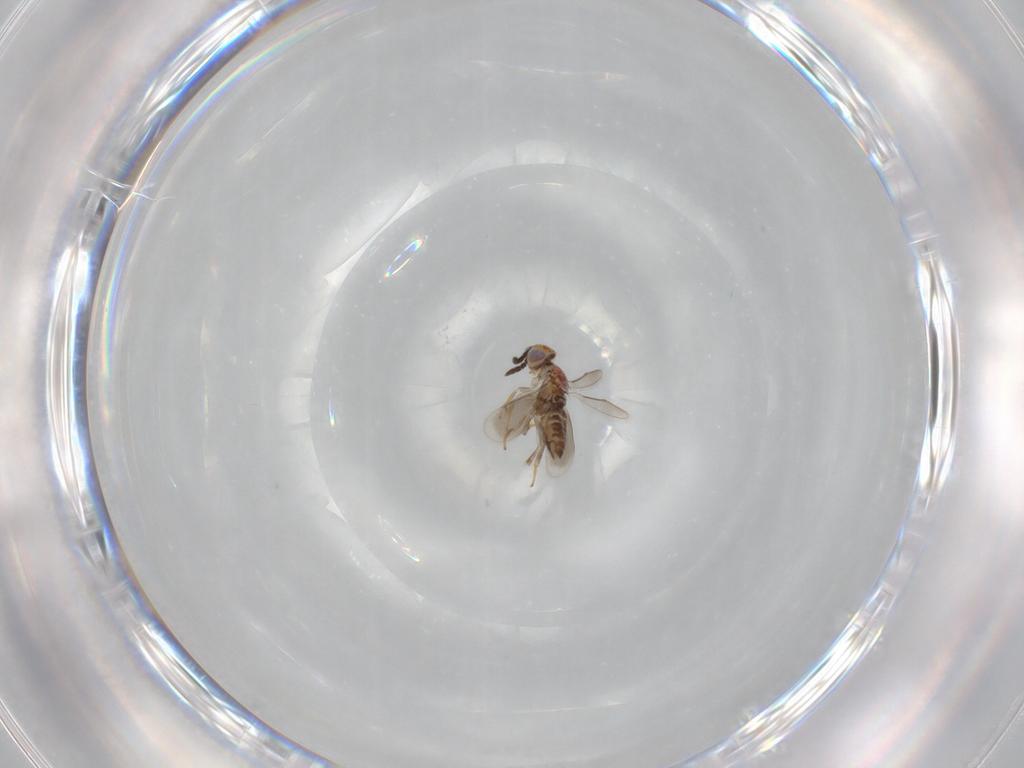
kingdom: Animalia
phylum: Arthropoda
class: Insecta
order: Hymenoptera
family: Aphelinidae
